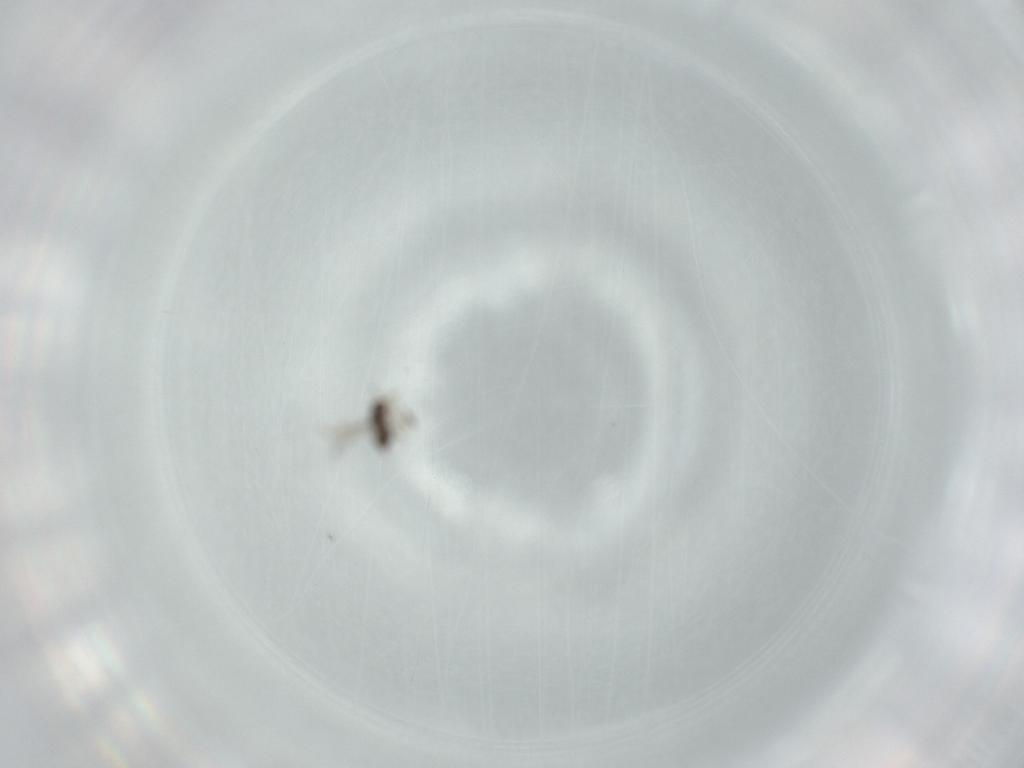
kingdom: Animalia
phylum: Arthropoda
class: Insecta
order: Hymenoptera
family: Mymaridae
